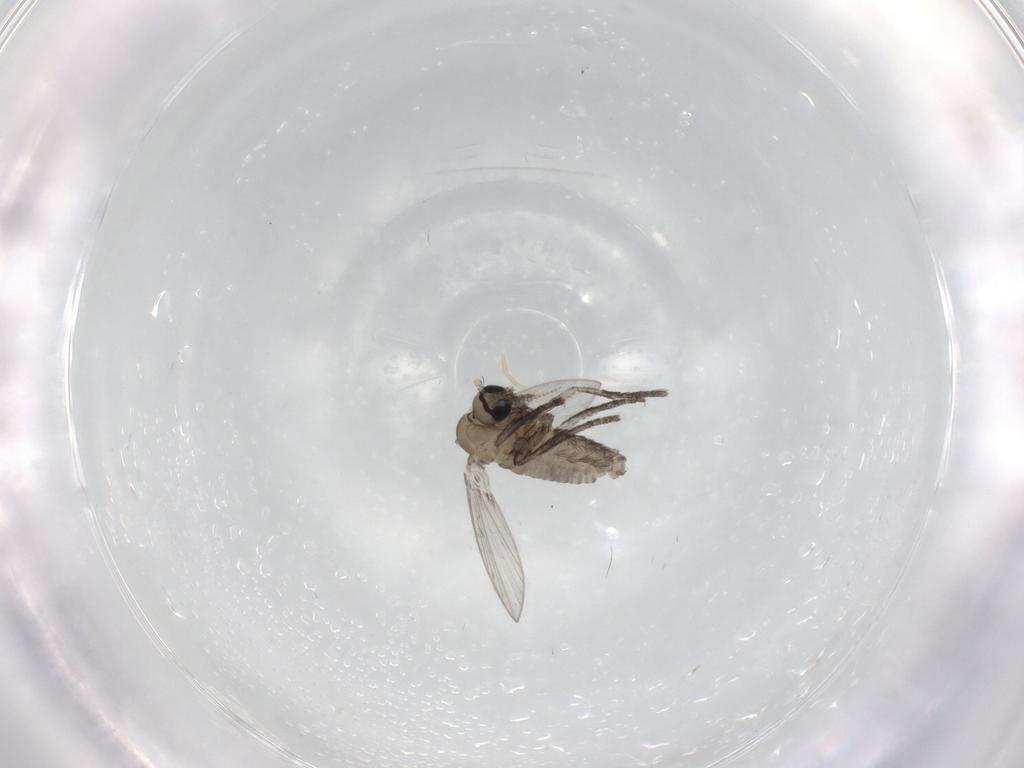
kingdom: Animalia
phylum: Arthropoda
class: Insecta
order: Diptera
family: Psychodidae
